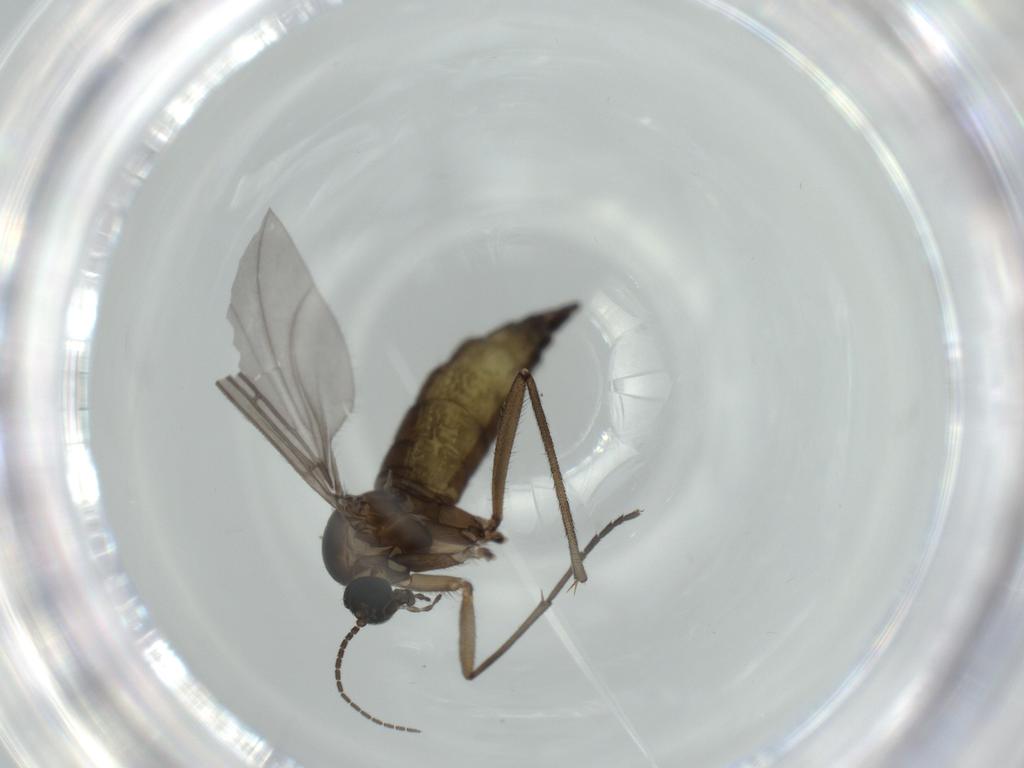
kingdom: Animalia
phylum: Arthropoda
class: Insecta
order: Diptera
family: Sciaridae
